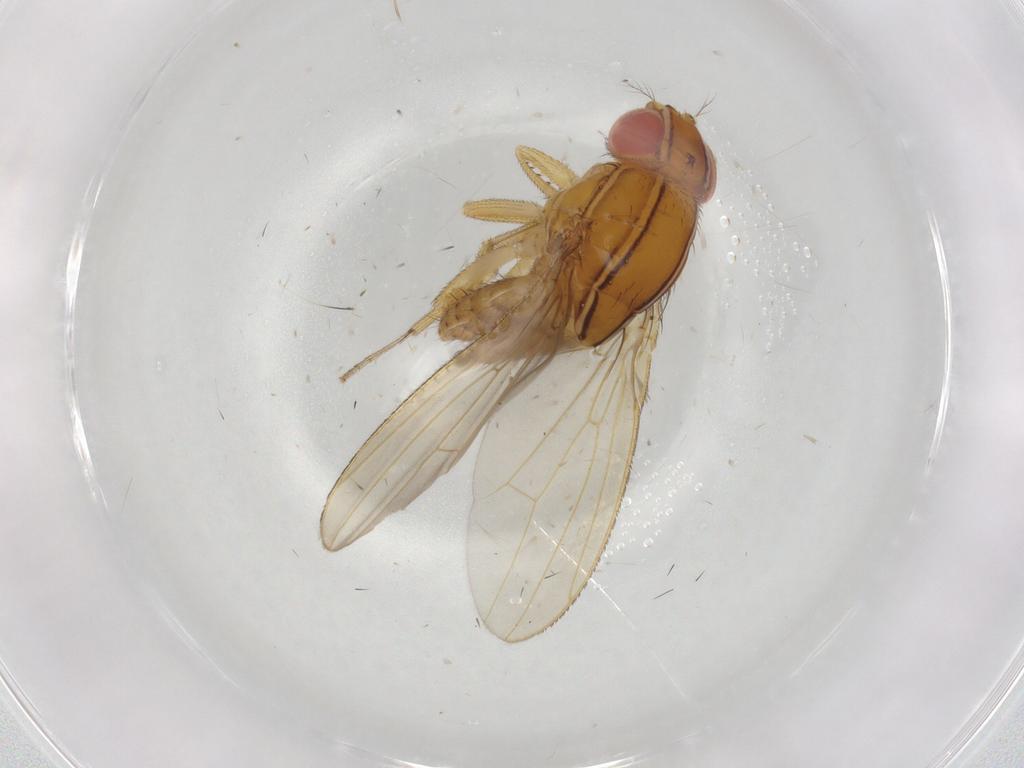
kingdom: Animalia
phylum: Arthropoda
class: Insecta
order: Diptera
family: Drosophilidae
